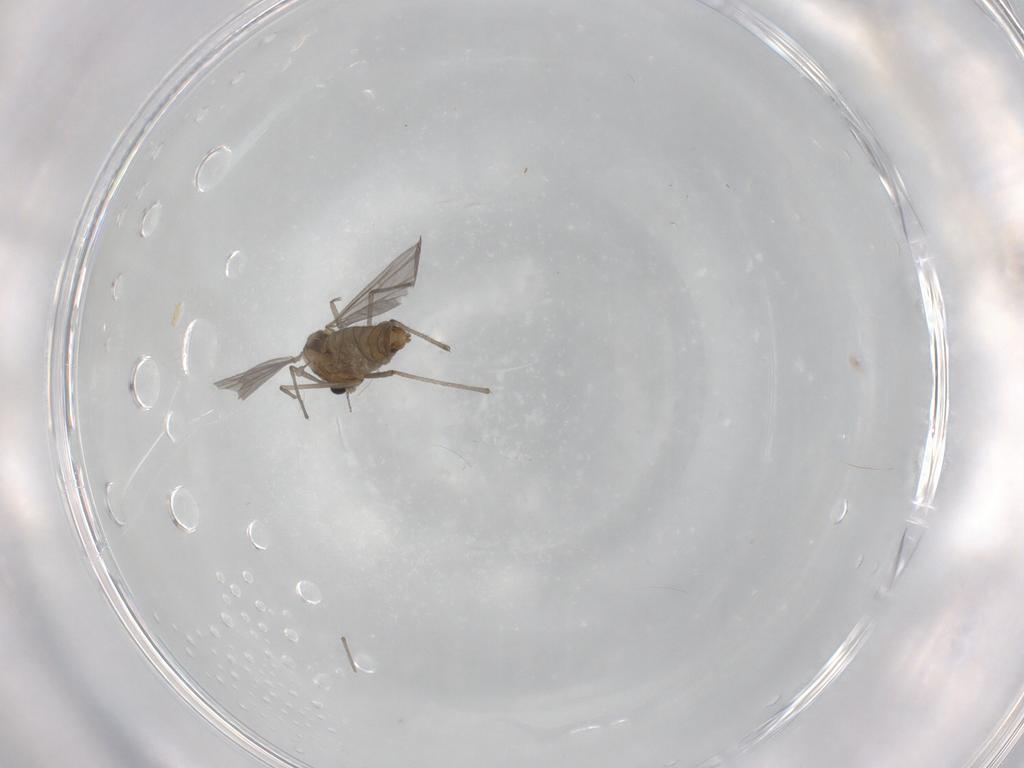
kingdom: Animalia
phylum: Arthropoda
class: Insecta
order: Diptera
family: Chironomidae
